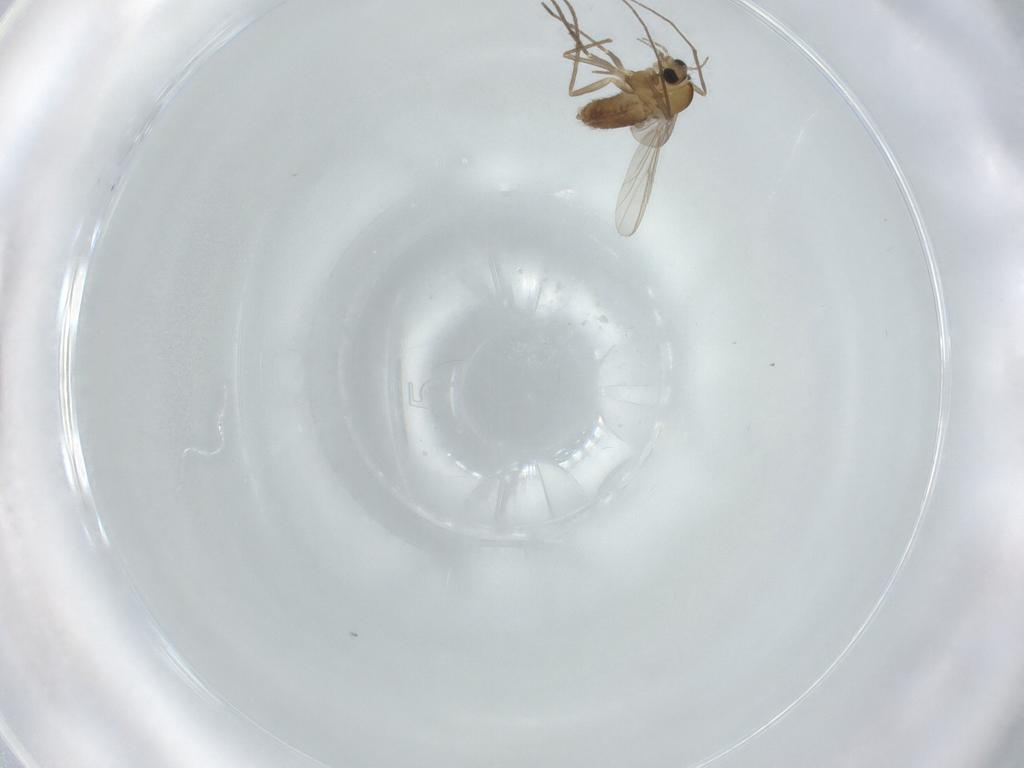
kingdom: Animalia
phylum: Arthropoda
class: Insecta
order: Diptera
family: Chironomidae
